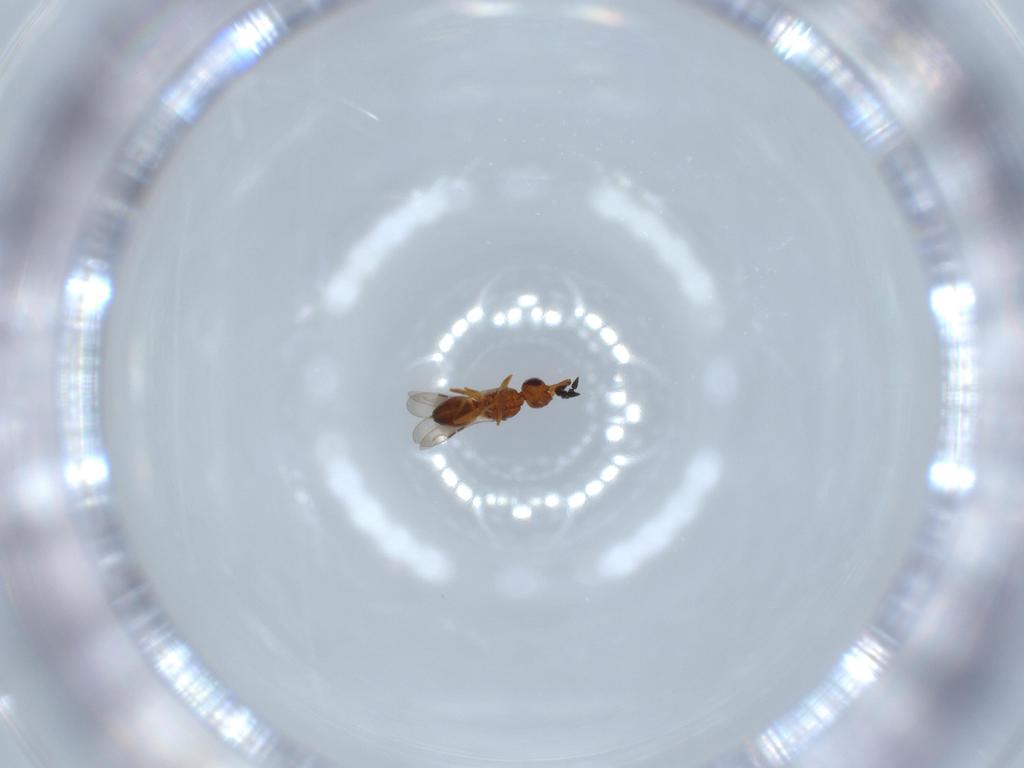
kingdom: Animalia
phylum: Arthropoda
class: Insecta
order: Hymenoptera
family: Ceraphronidae
